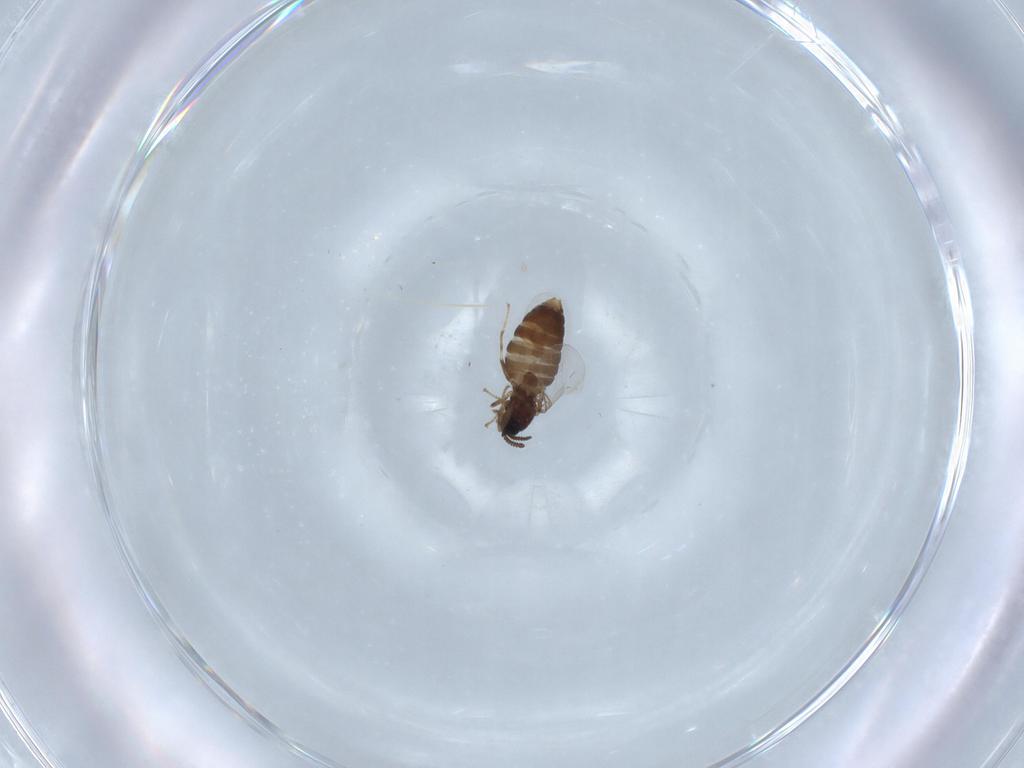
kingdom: Animalia
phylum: Arthropoda
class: Insecta
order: Diptera
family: Scatopsidae
